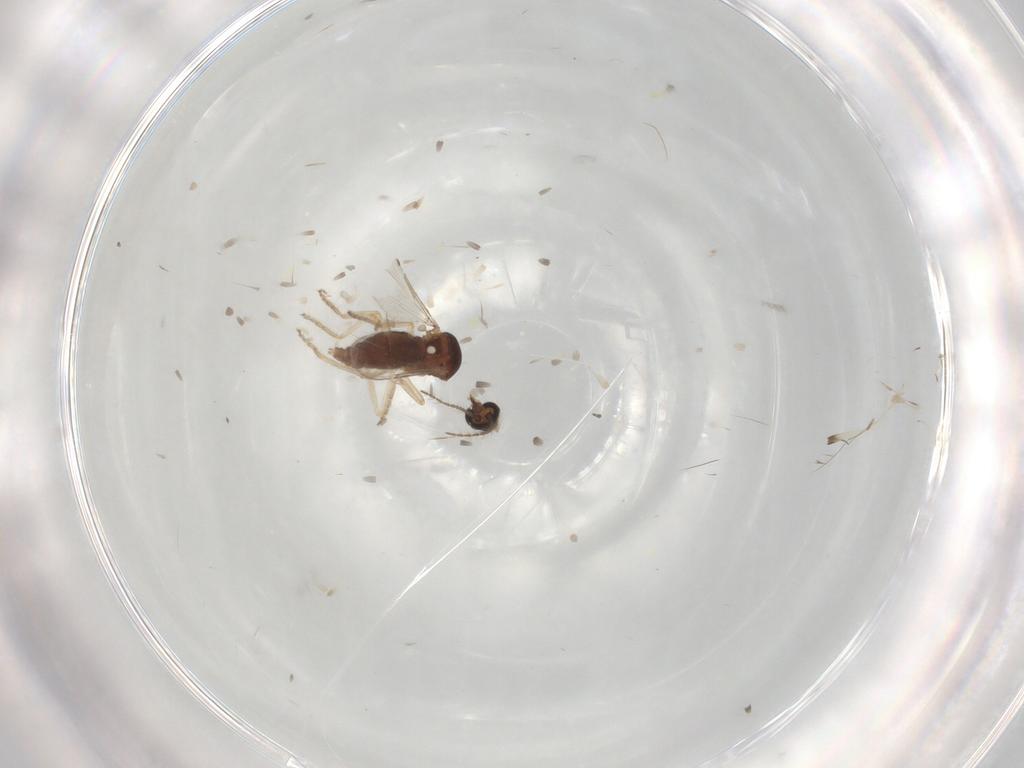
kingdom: Animalia
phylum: Arthropoda
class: Insecta
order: Diptera
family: Ceratopogonidae
